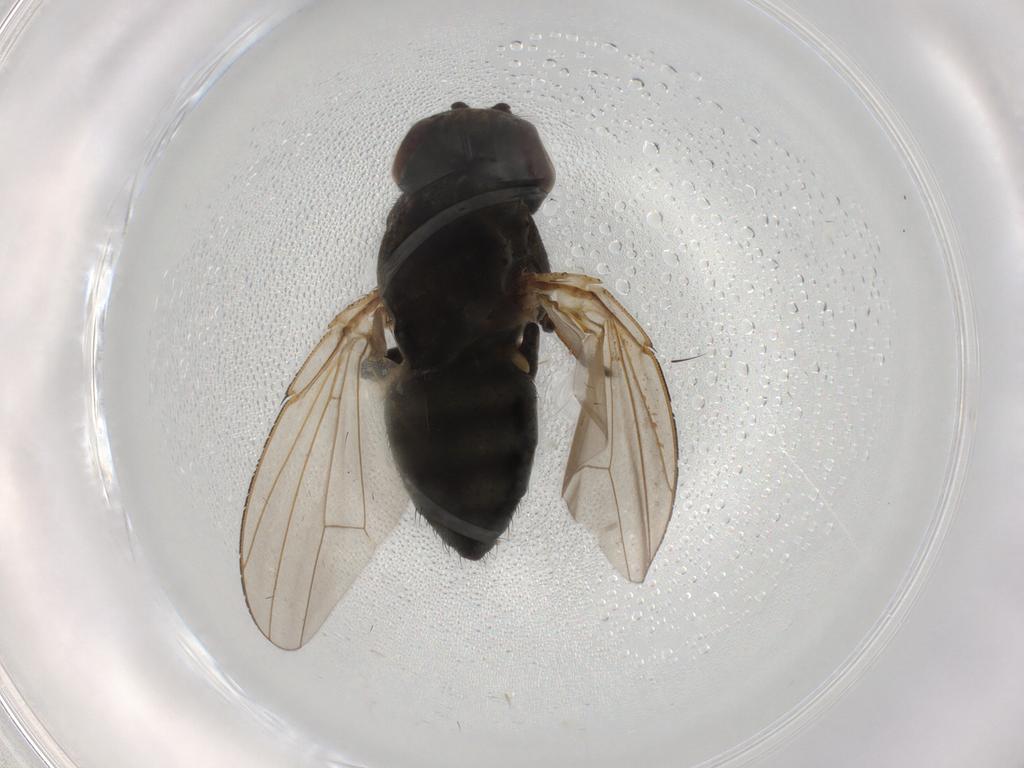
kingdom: Animalia
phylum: Arthropoda
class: Insecta
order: Diptera
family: Ephydridae
